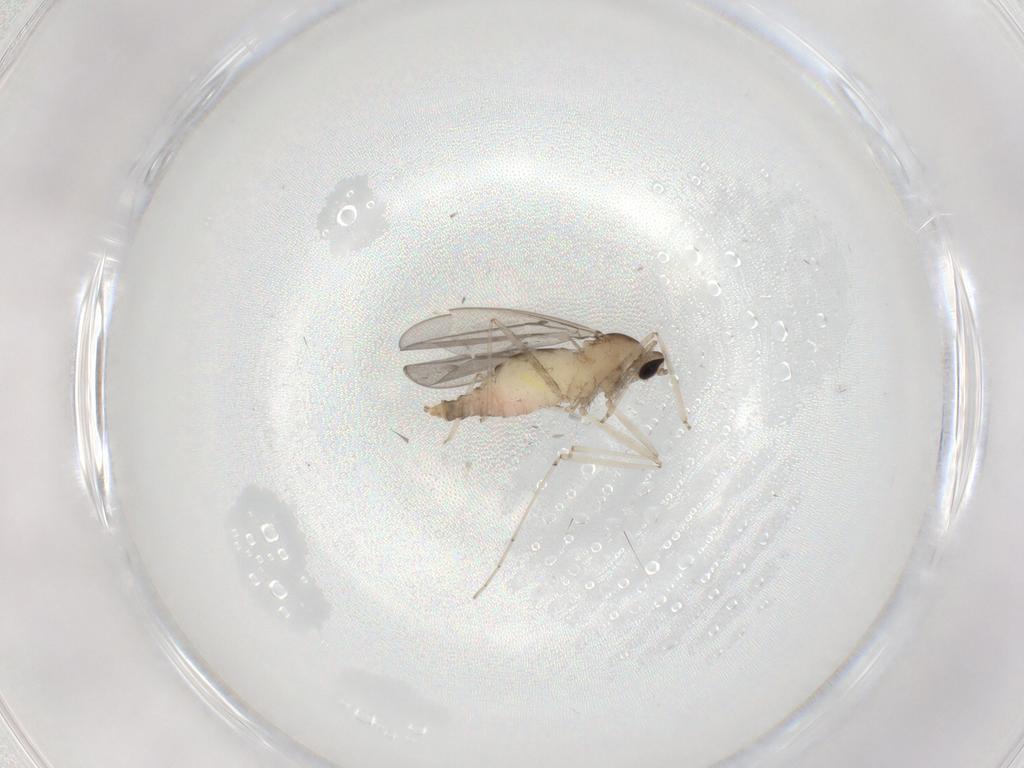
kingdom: Animalia
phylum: Arthropoda
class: Insecta
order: Diptera
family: Cecidomyiidae
